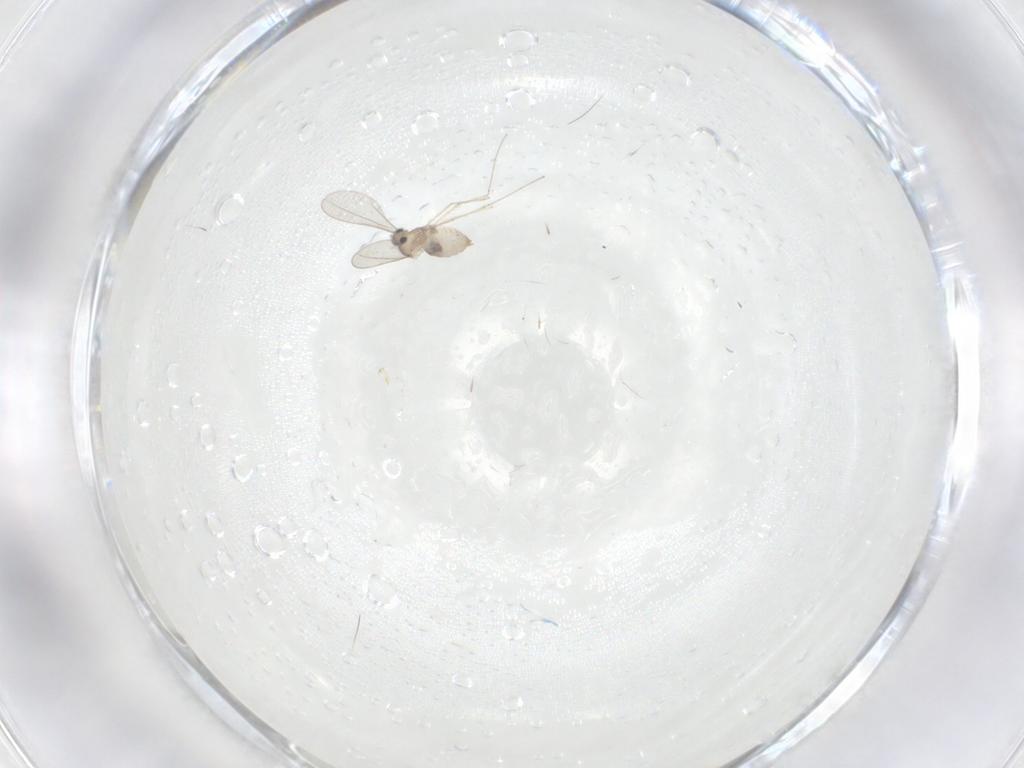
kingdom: Animalia
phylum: Arthropoda
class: Insecta
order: Diptera
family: Cecidomyiidae
